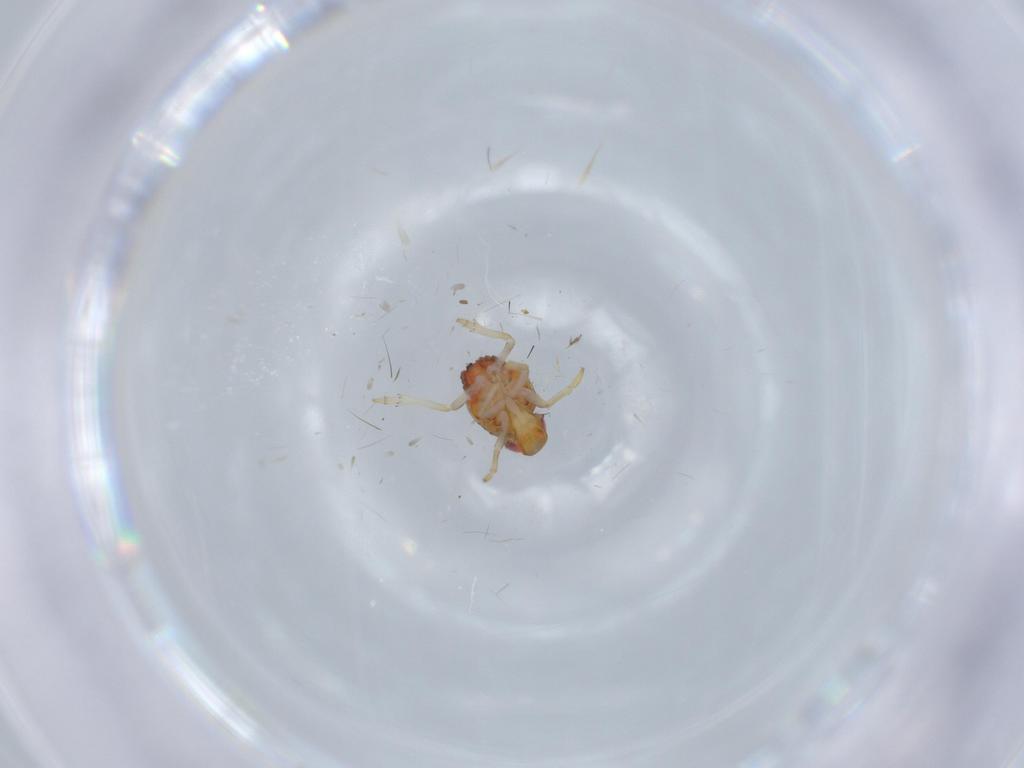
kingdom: Animalia
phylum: Arthropoda
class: Insecta
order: Hemiptera
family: Issidae
